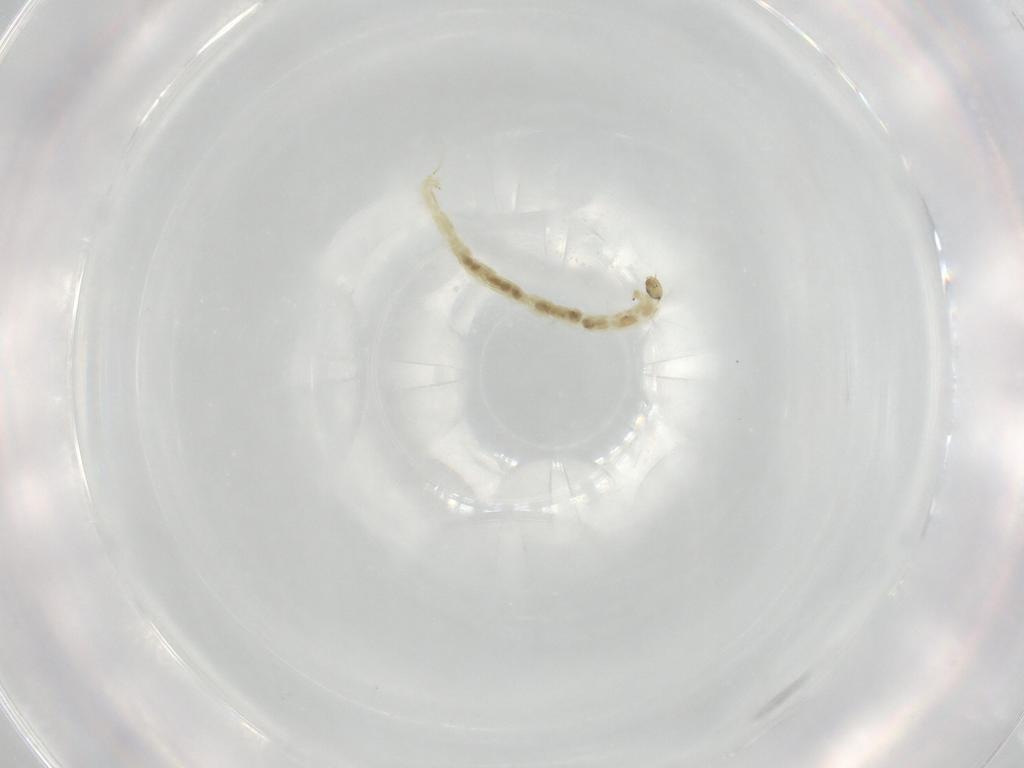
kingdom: Animalia
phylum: Arthropoda
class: Insecta
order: Diptera
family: Chironomidae
